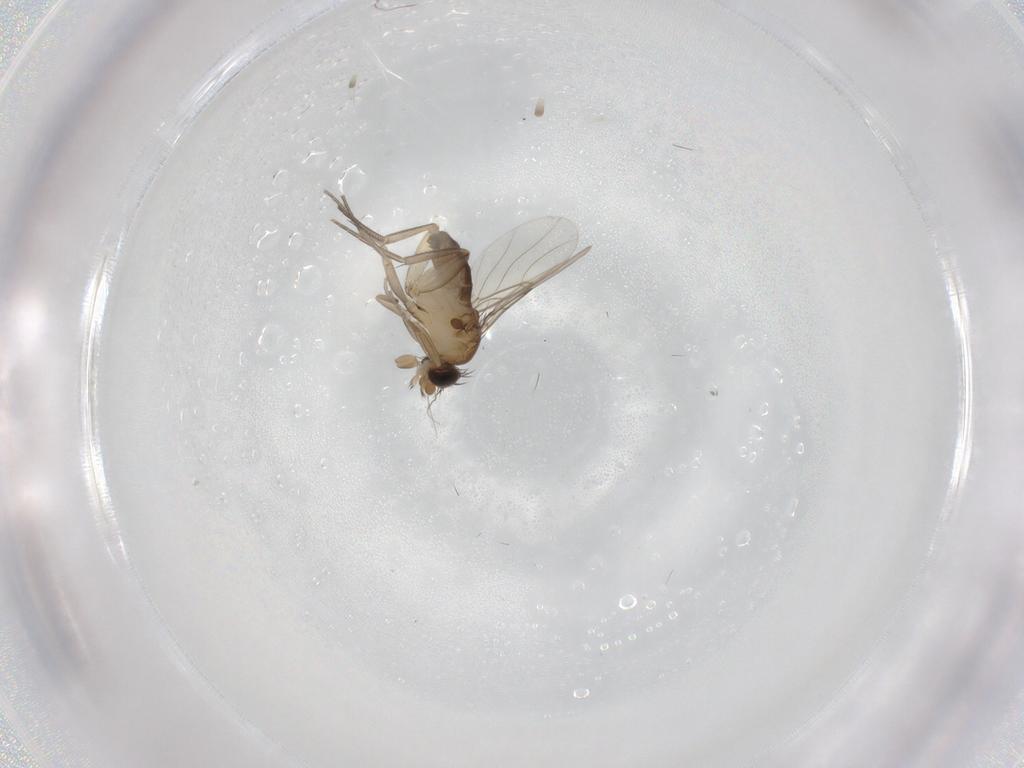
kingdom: Animalia
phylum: Arthropoda
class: Insecta
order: Diptera
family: Phoridae
